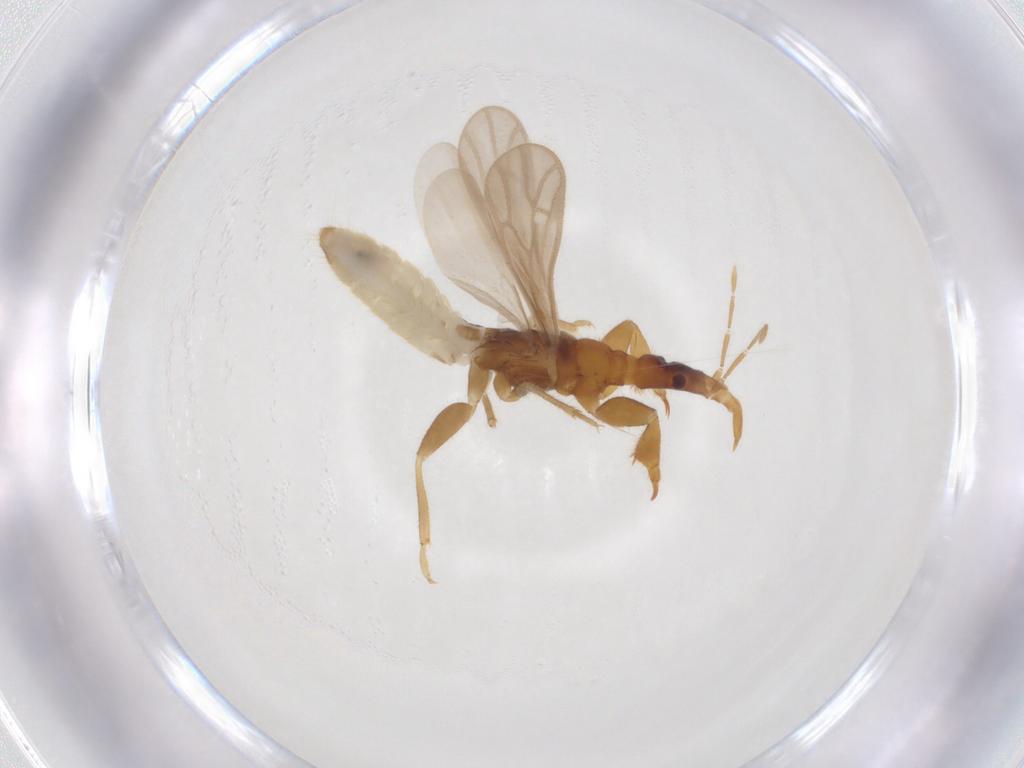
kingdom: Animalia
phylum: Arthropoda
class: Insecta
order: Hemiptera
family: Enicocephalidae
